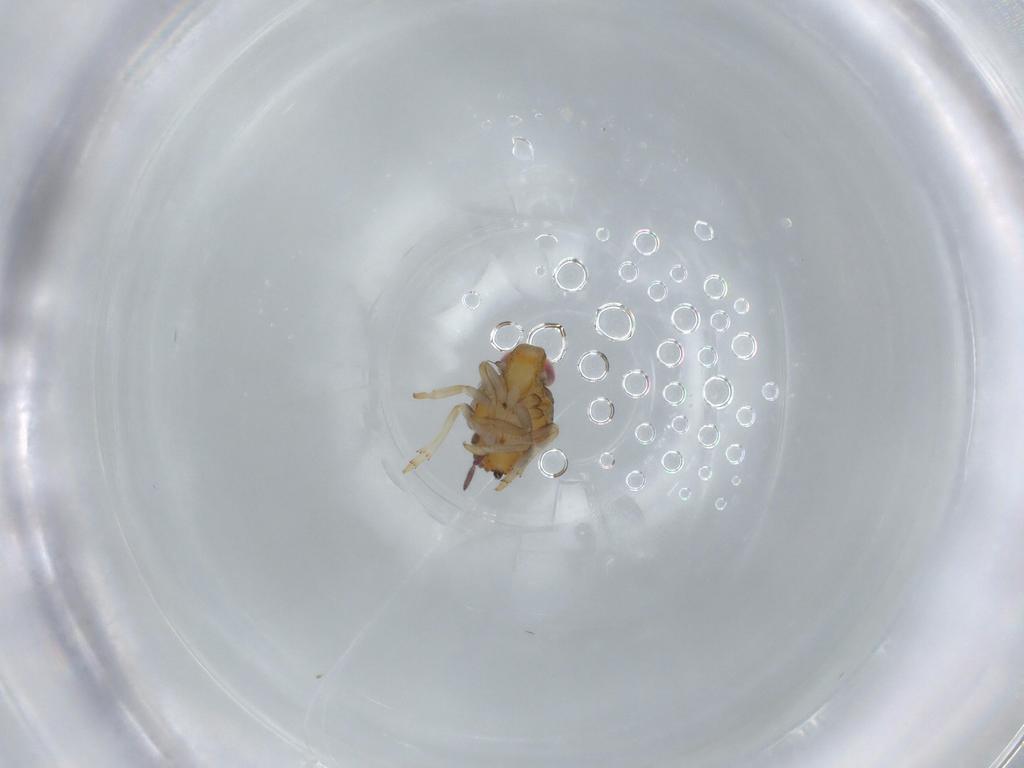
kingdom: Animalia
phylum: Arthropoda
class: Insecta
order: Hemiptera
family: Issidae
